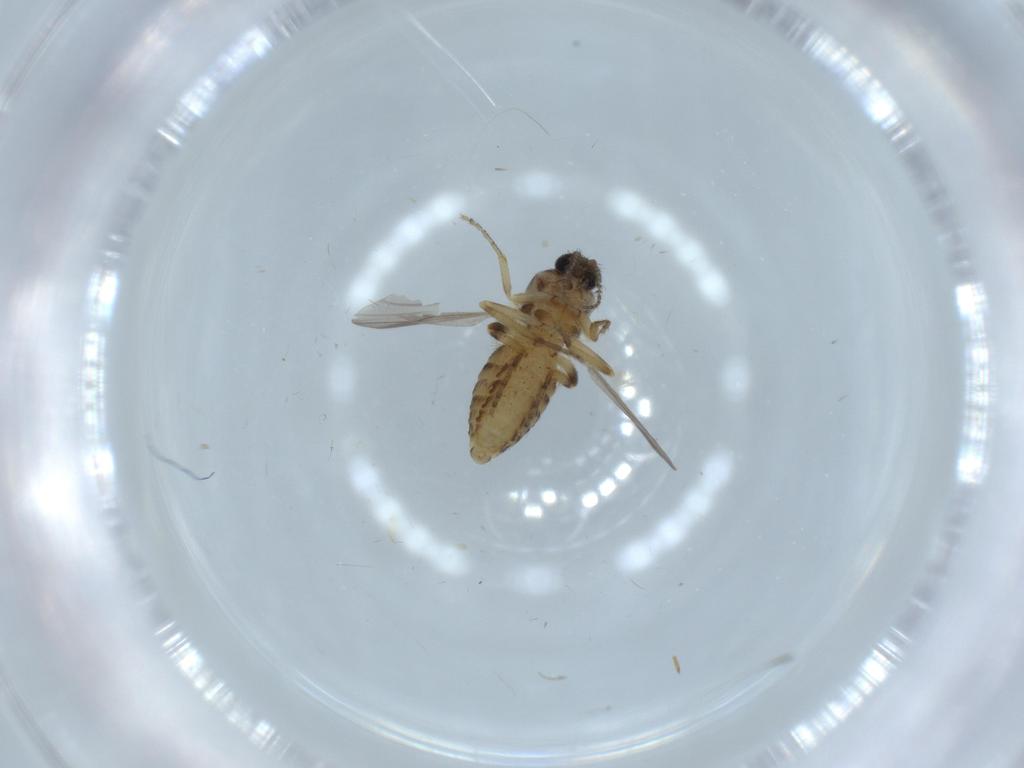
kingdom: Animalia
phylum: Arthropoda
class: Insecta
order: Diptera
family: Ceratopogonidae
